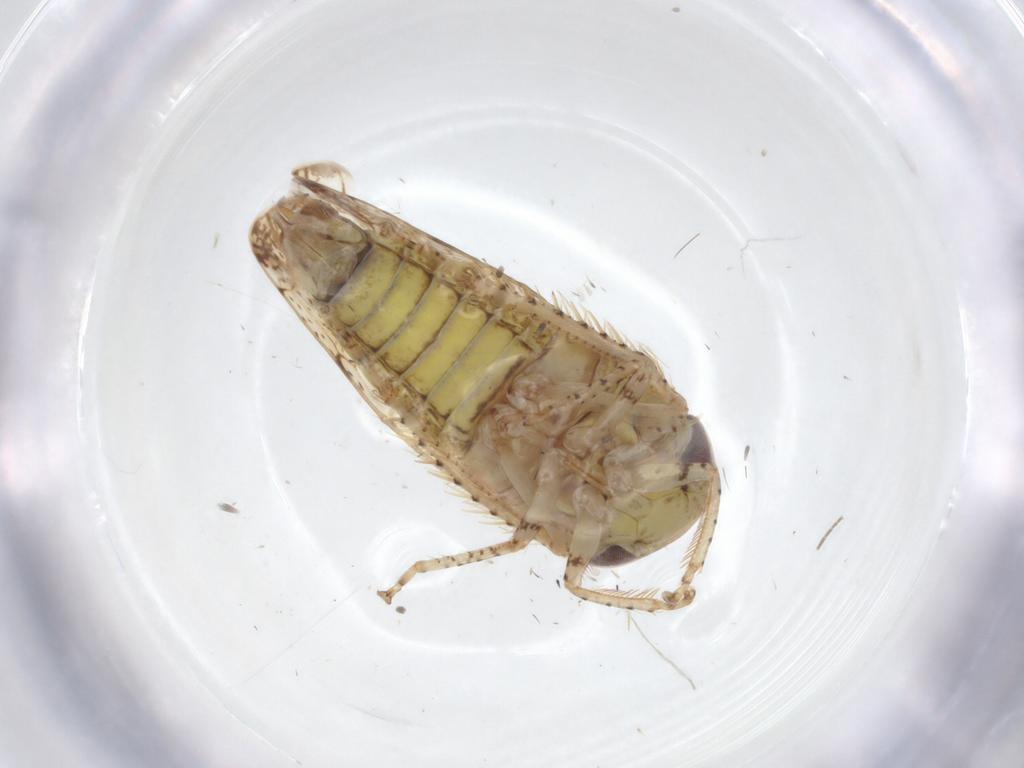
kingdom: Animalia
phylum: Arthropoda
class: Insecta
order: Hemiptera
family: Cicadellidae
